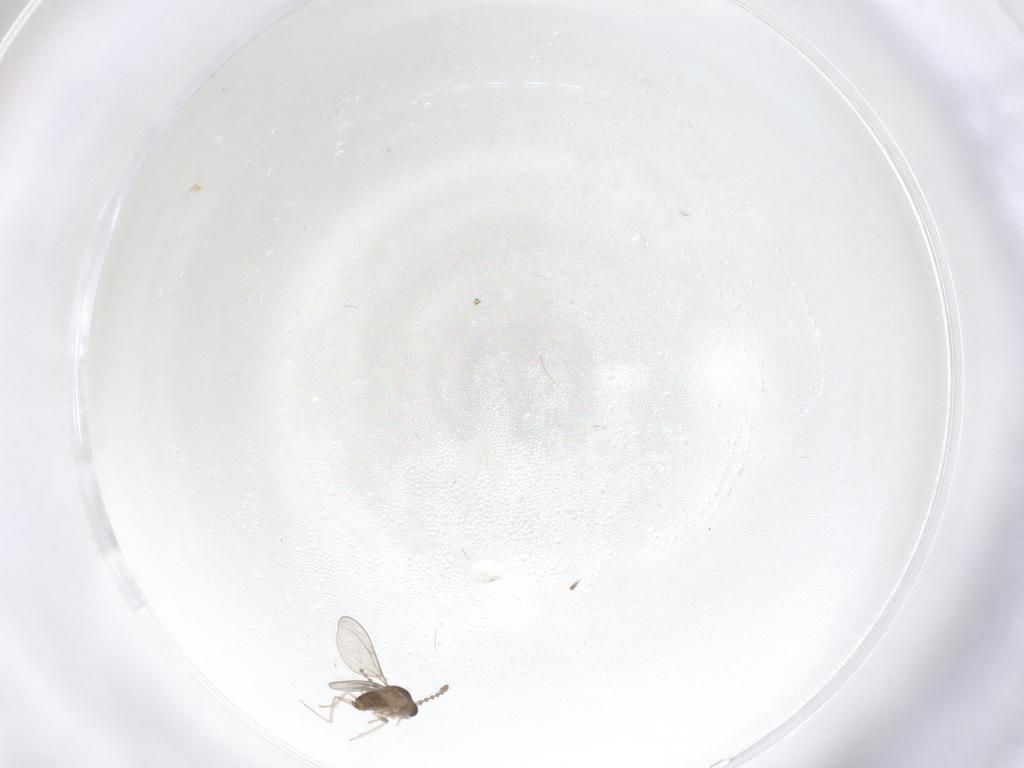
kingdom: Animalia
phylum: Arthropoda
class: Insecta
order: Diptera
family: Cecidomyiidae
